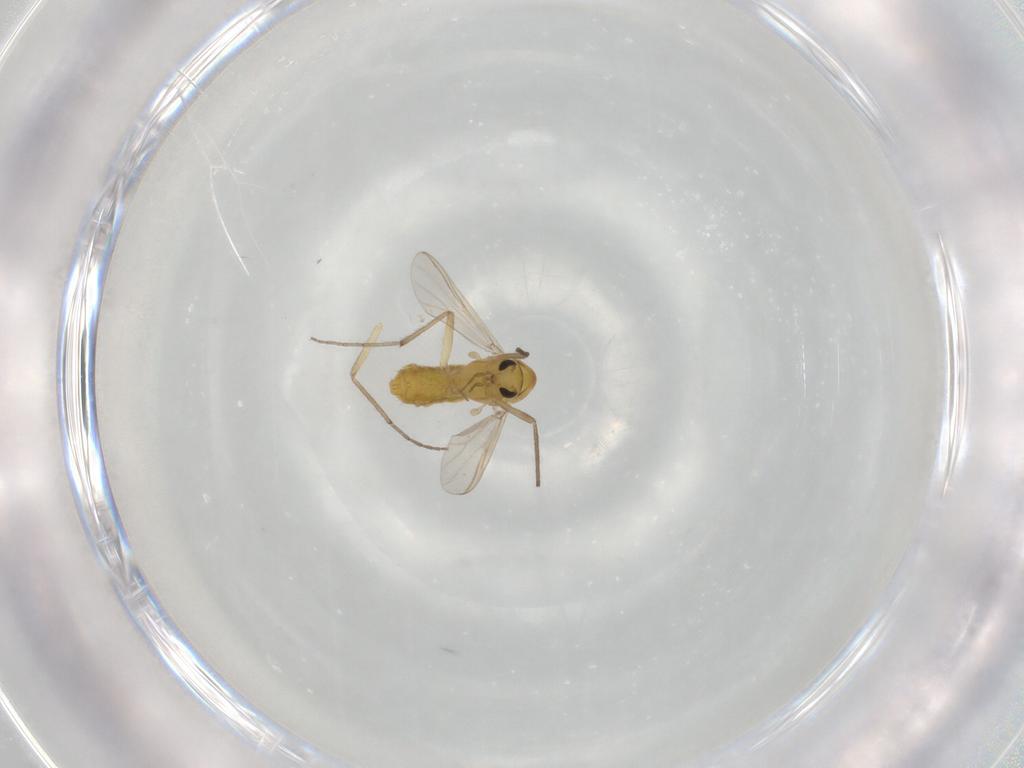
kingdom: Animalia
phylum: Arthropoda
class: Insecta
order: Diptera
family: Chironomidae
